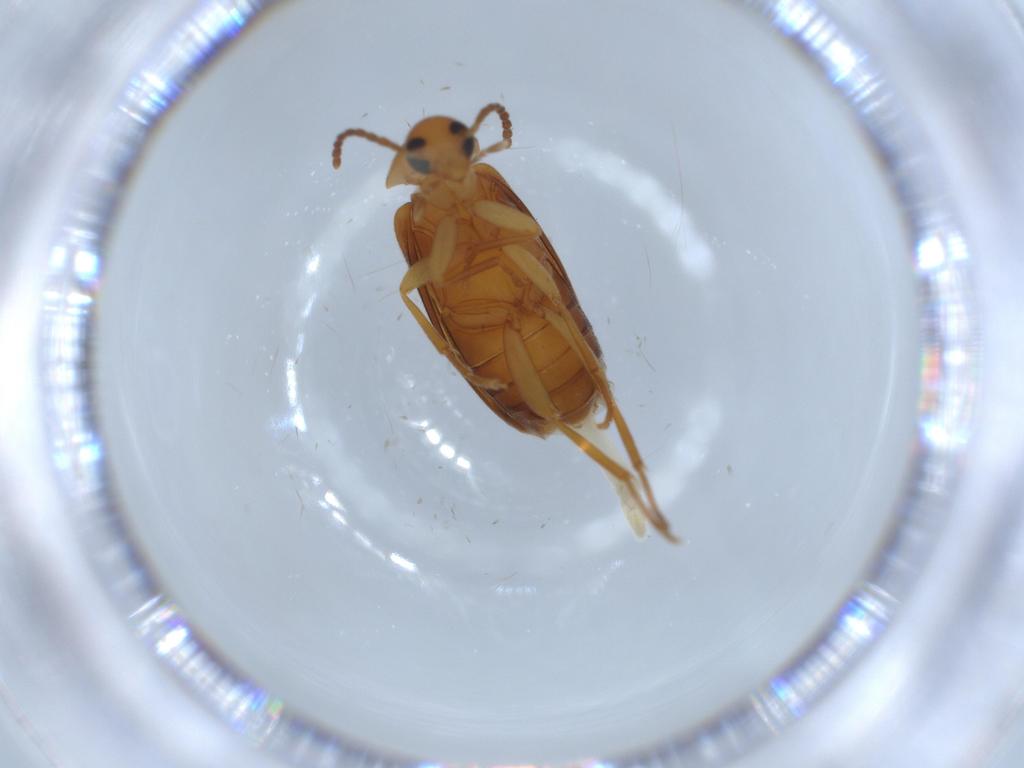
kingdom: Animalia
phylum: Arthropoda
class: Insecta
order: Coleoptera
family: Scraptiidae
